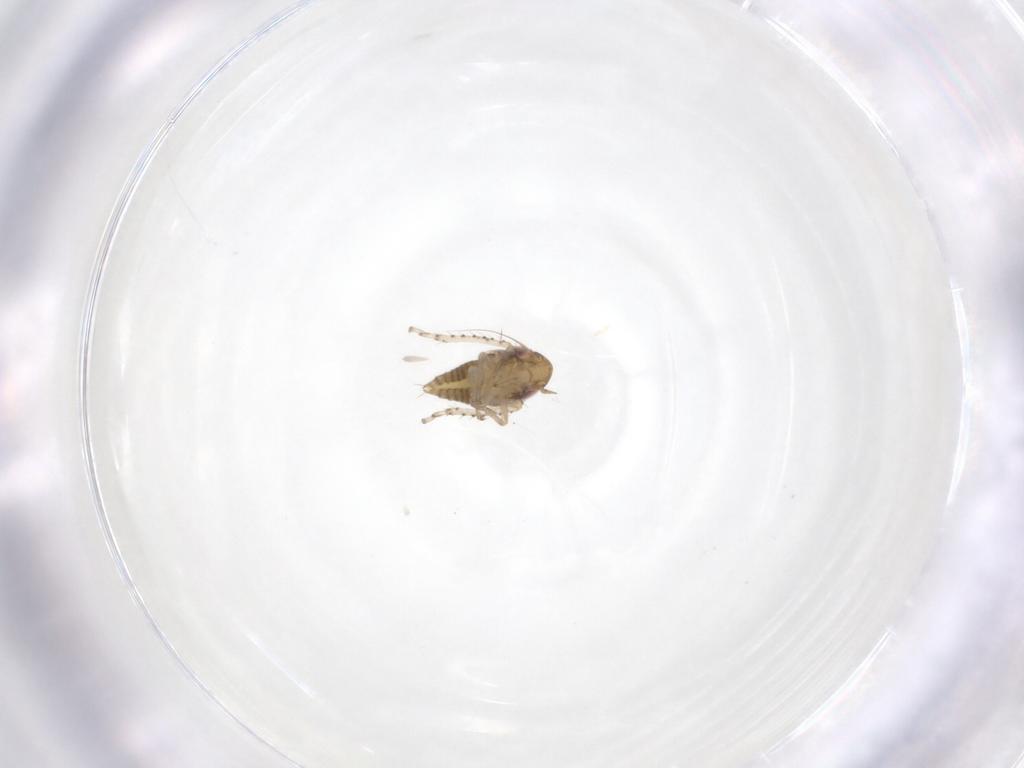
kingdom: Animalia
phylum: Arthropoda
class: Insecta
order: Hemiptera
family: Cicadellidae
